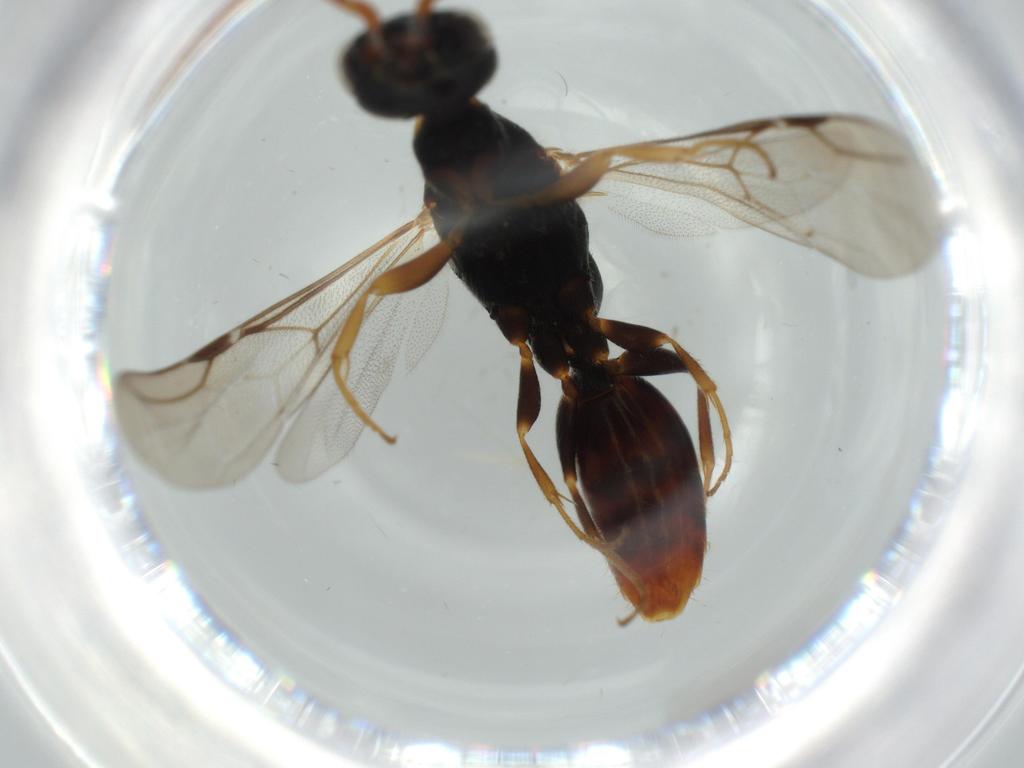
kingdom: Animalia
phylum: Arthropoda
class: Insecta
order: Hymenoptera
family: Bethylidae
